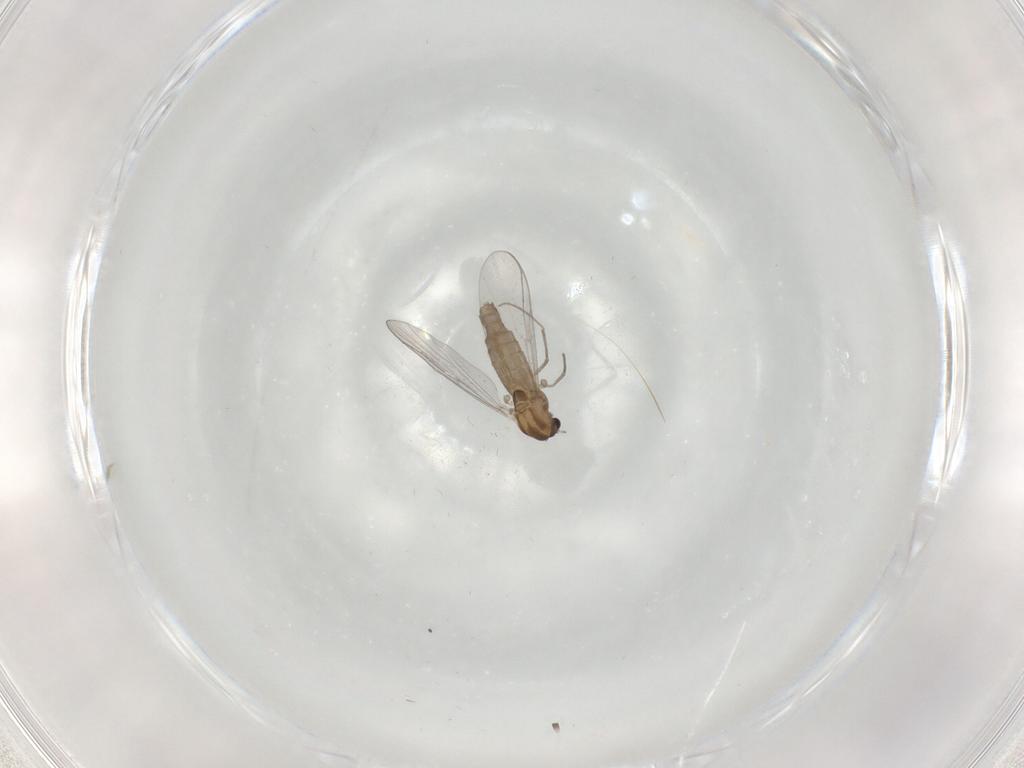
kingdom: Animalia
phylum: Arthropoda
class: Insecta
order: Diptera
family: Chironomidae
